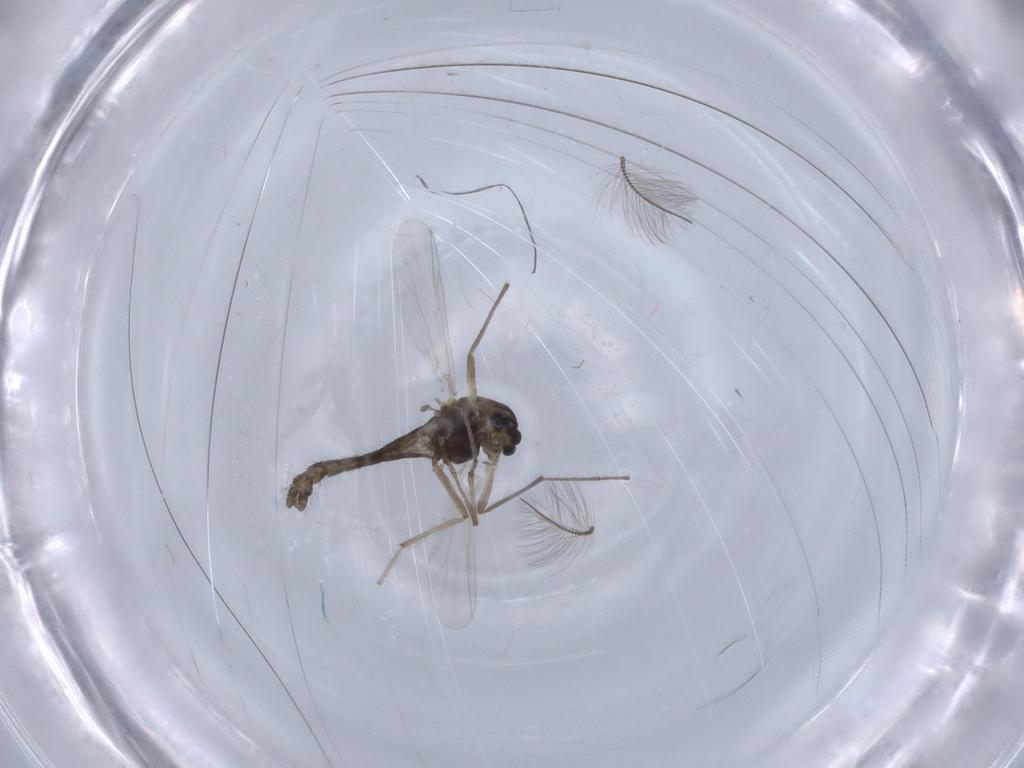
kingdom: Animalia
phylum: Arthropoda
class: Insecta
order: Diptera
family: Chironomidae
